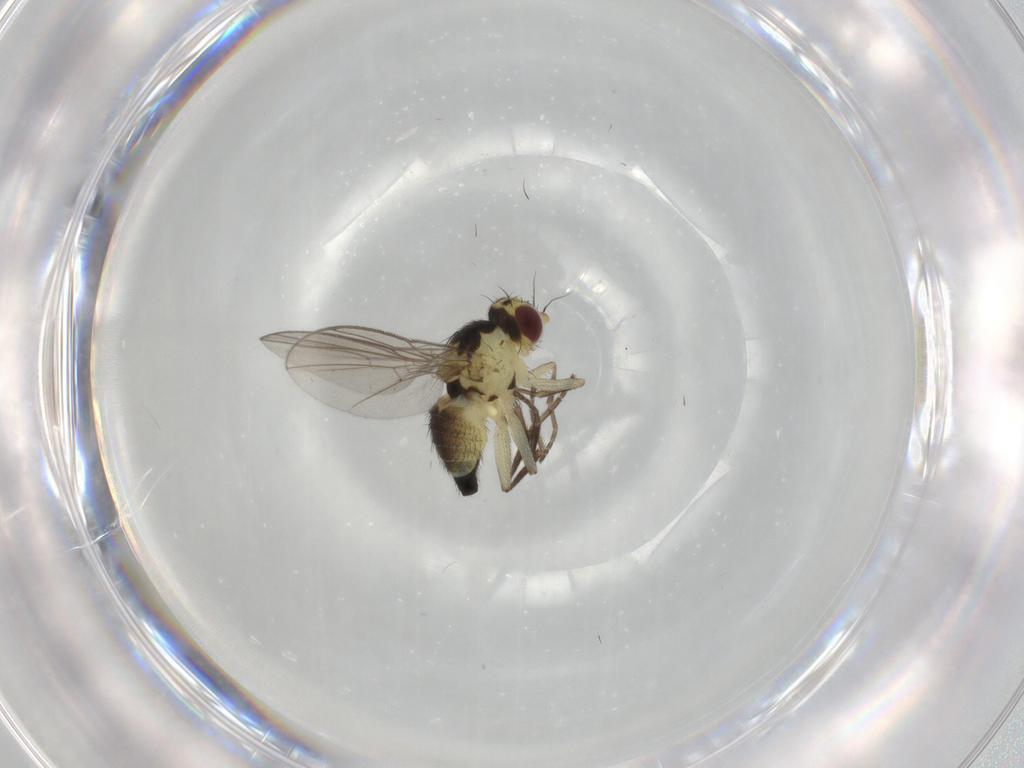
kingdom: Animalia
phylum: Arthropoda
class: Insecta
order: Diptera
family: Agromyzidae
